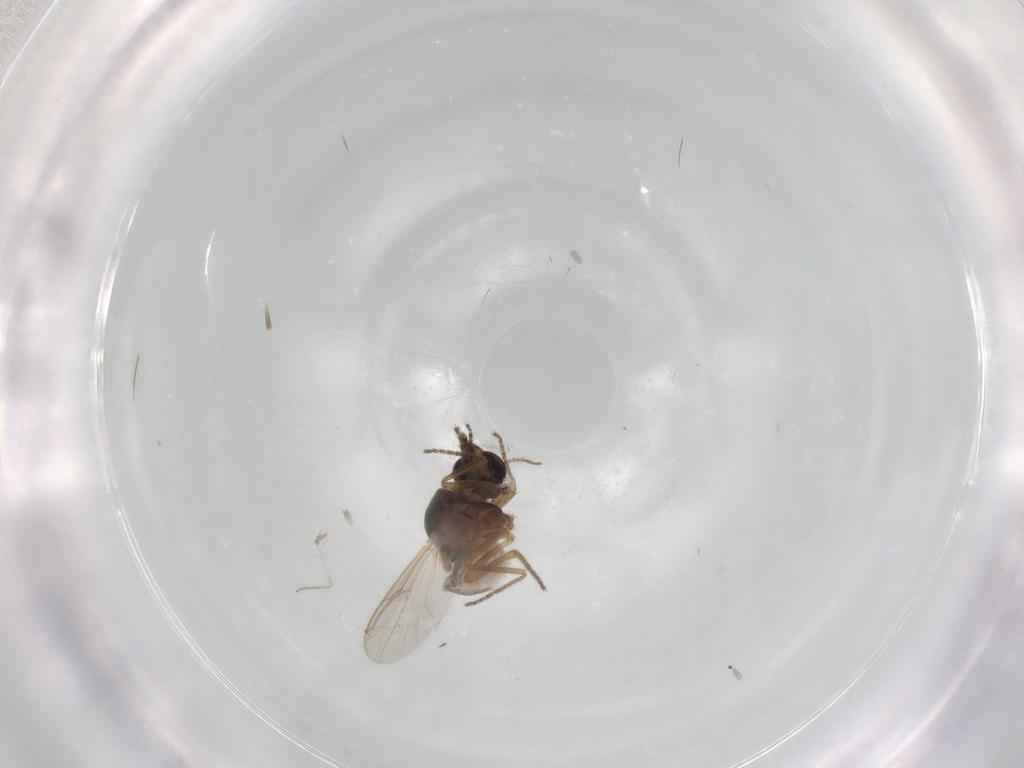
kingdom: Animalia
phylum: Arthropoda
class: Insecta
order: Diptera
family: Ceratopogonidae
